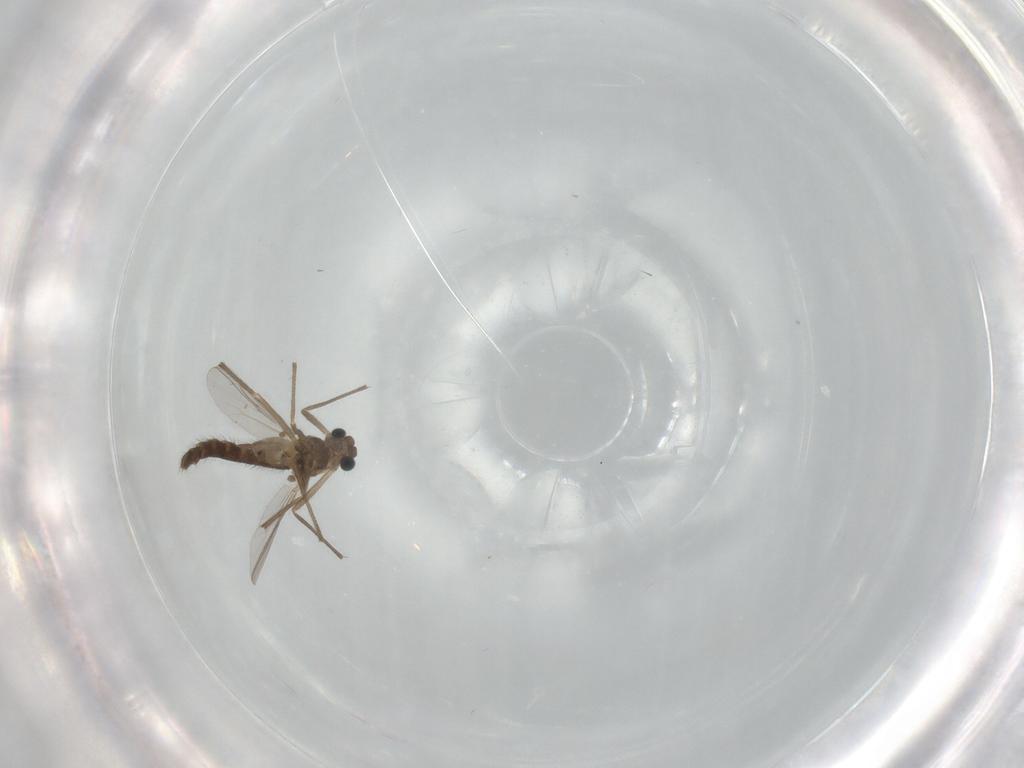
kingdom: Animalia
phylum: Arthropoda
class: Insecta
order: Diptera
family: Chironomidae
